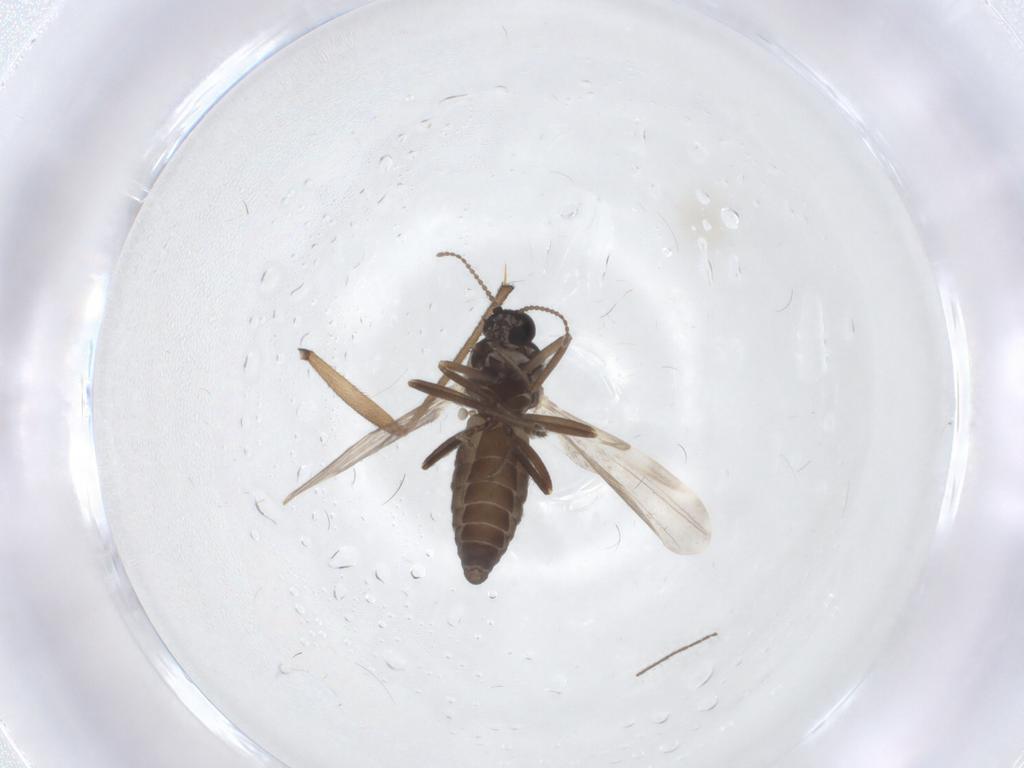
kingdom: Animalia
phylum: Arthropoda
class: Insecta
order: Diptera
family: Ceratopogonidae
